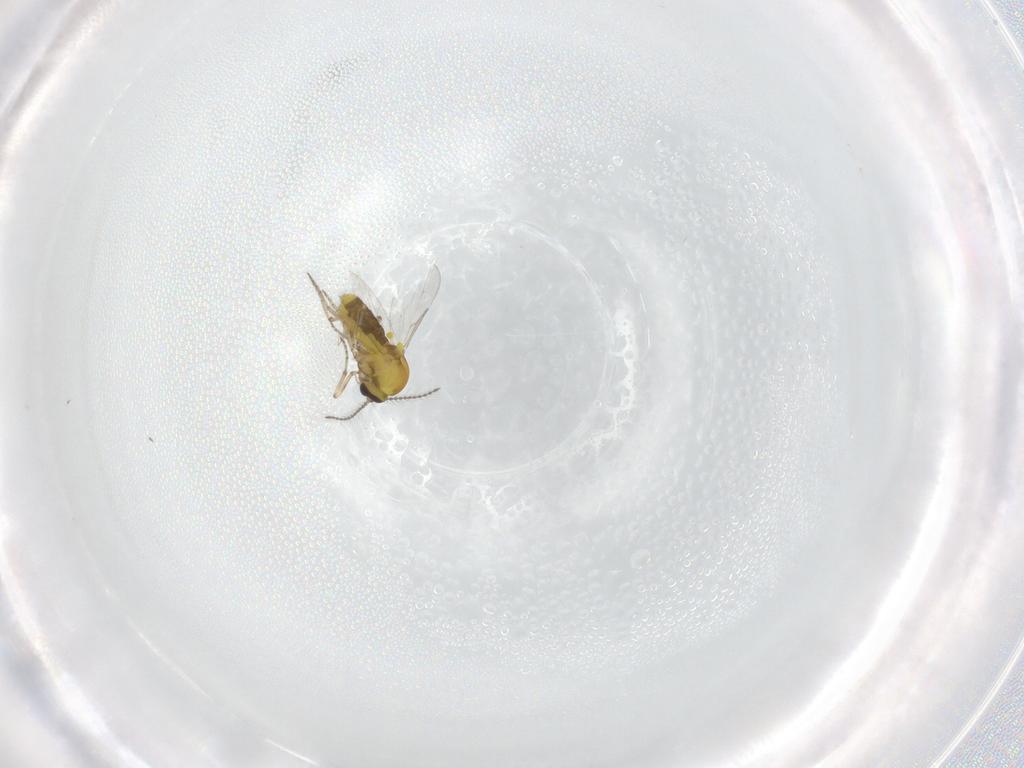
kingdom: Animalia
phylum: Arthropoda
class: Insecta
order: Diptera
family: Ceratopogonidae
